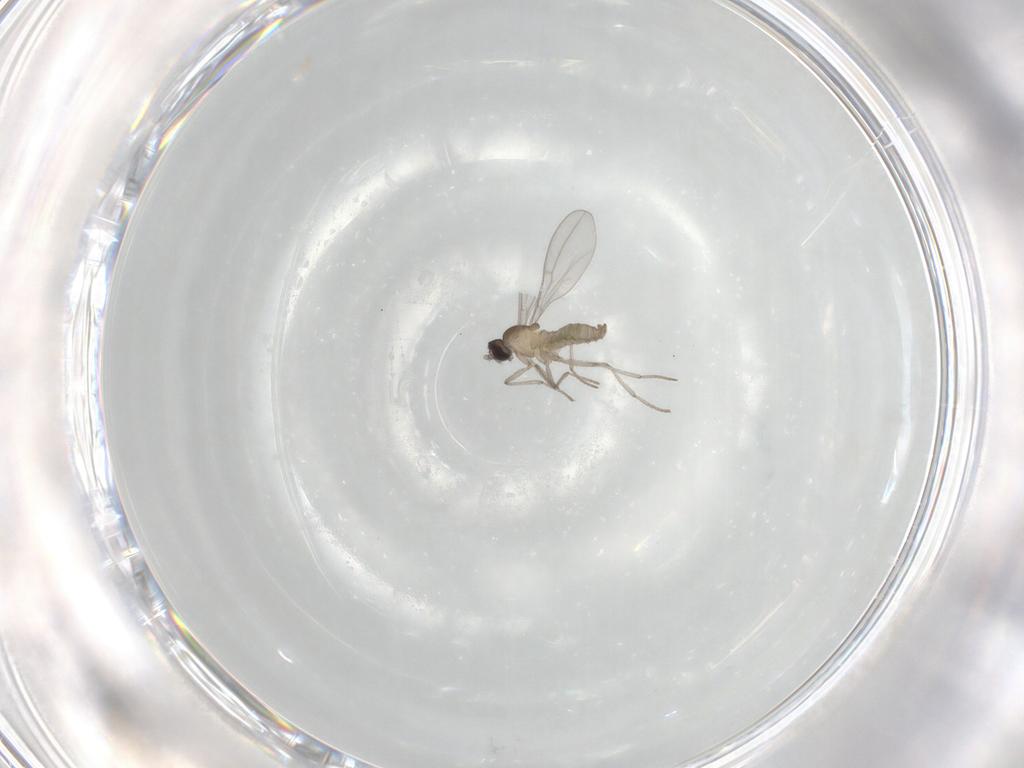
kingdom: Animalia
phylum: Arthropoda
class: Insecta
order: Diptera
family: Cecidomyiidae
